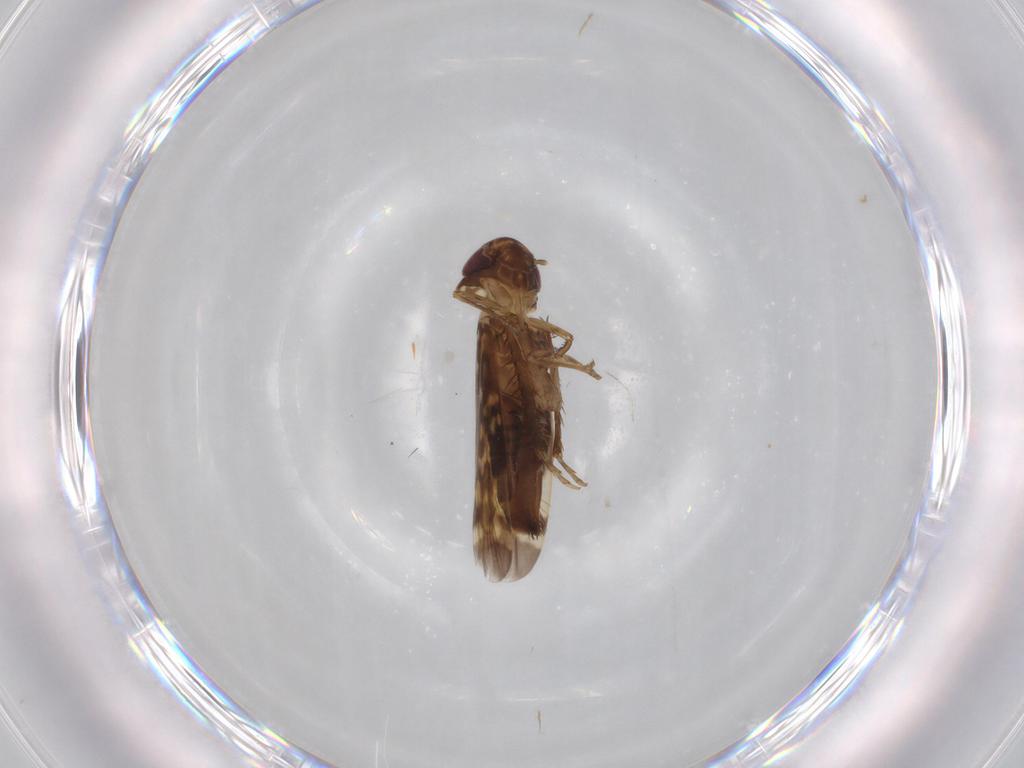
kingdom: Animalia
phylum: Arthropoda
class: Insecta
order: Hemiptera
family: Cicadellidae
